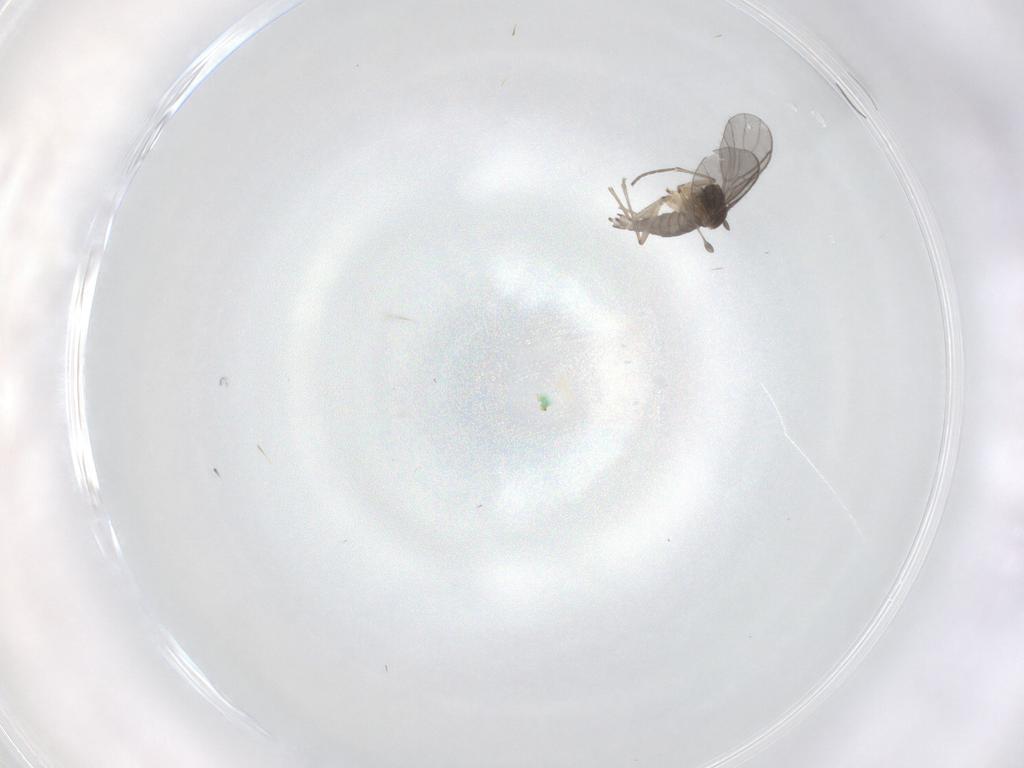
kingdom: Animalia
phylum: Arthropoda
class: Insecta
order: Diptera
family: Sciaridae
